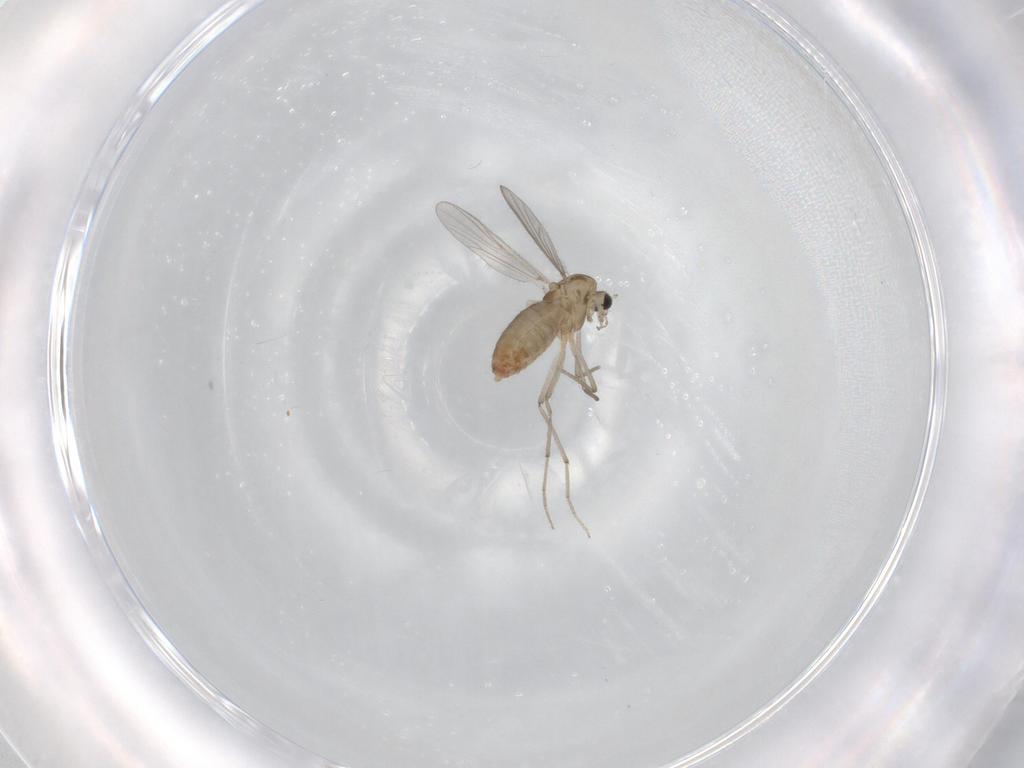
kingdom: Animalia
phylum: Arthropoda
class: Insecta
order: Diptera
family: Chironomidae
